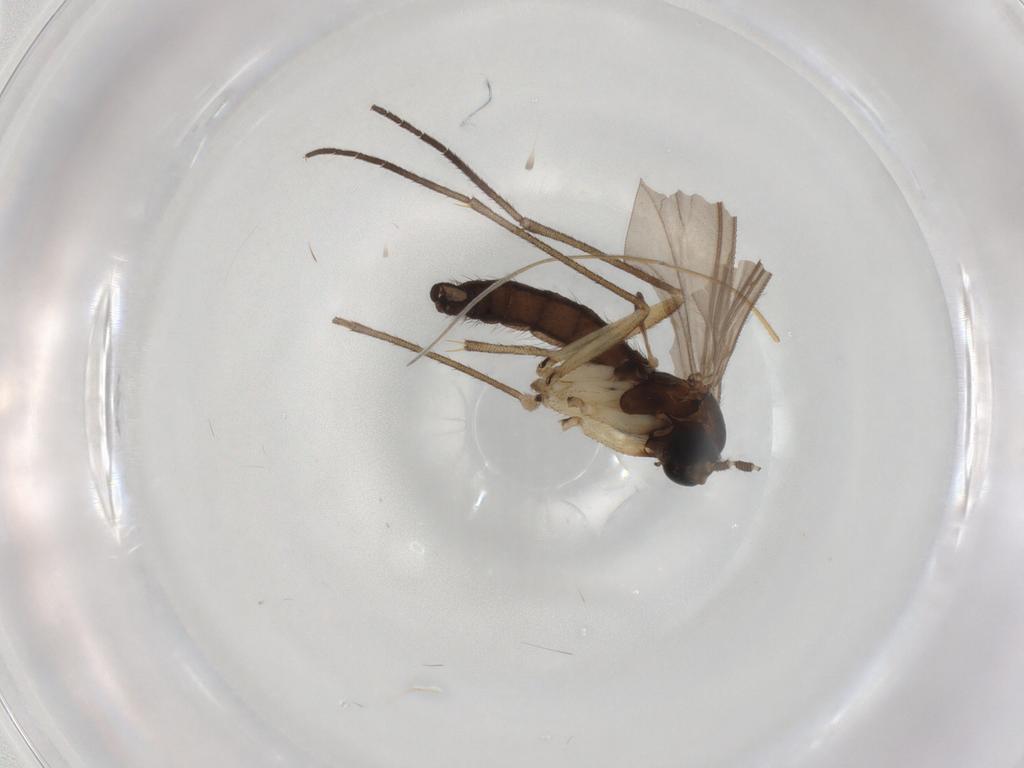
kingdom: Animalia
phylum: Arthropoda
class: Insecta
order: Diptera
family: Sciaridae
